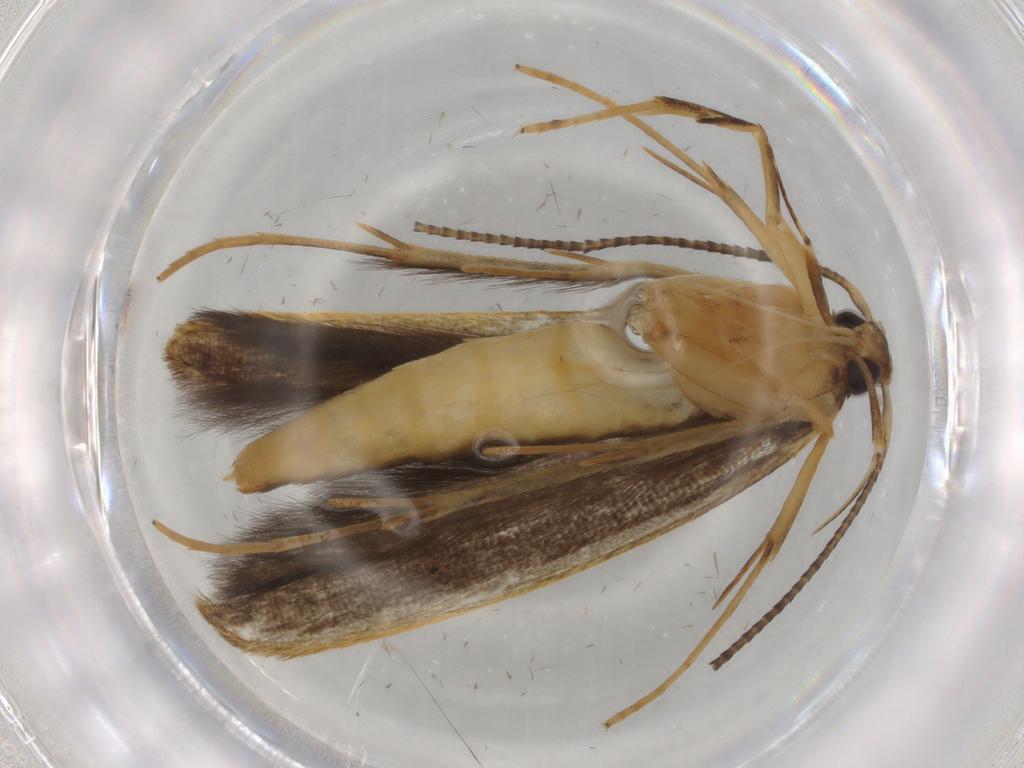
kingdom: Animalia
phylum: Arthropoda
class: Insecta
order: Lepidoptera
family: Pterolonchidae
